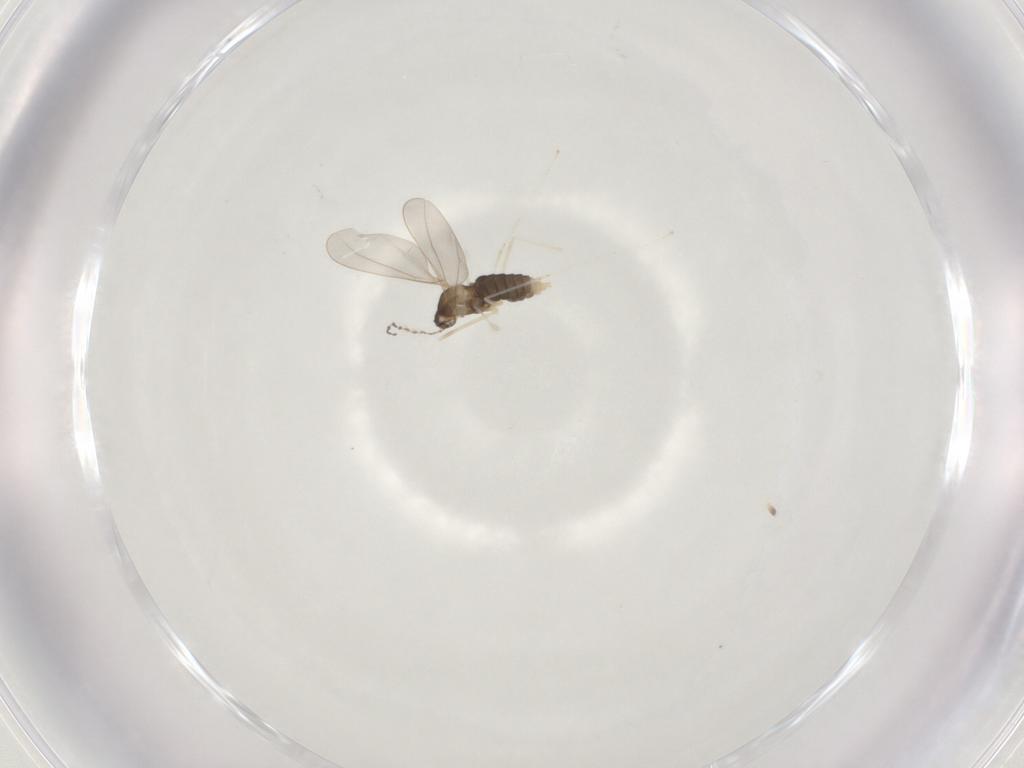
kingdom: Animalia
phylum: Arthropoda
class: Insecta
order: Diptera
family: Cecidomyiidae
